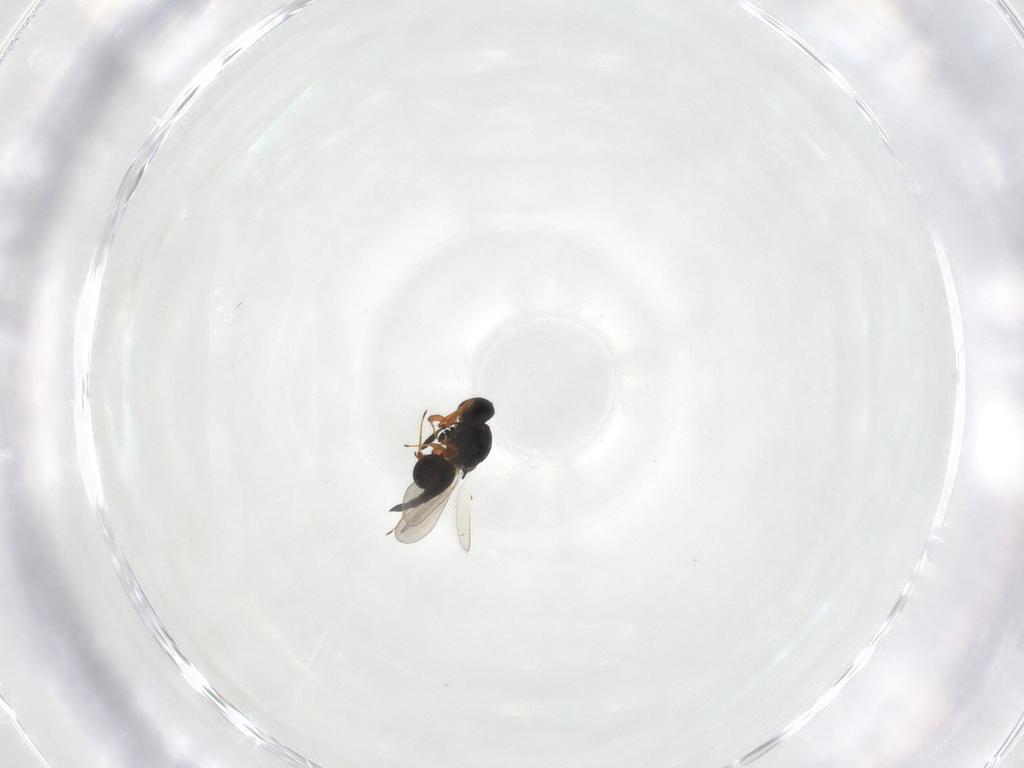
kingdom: Animalia
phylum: Arthropoda
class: Insecta
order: Hymenoptera
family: Platygastridae
